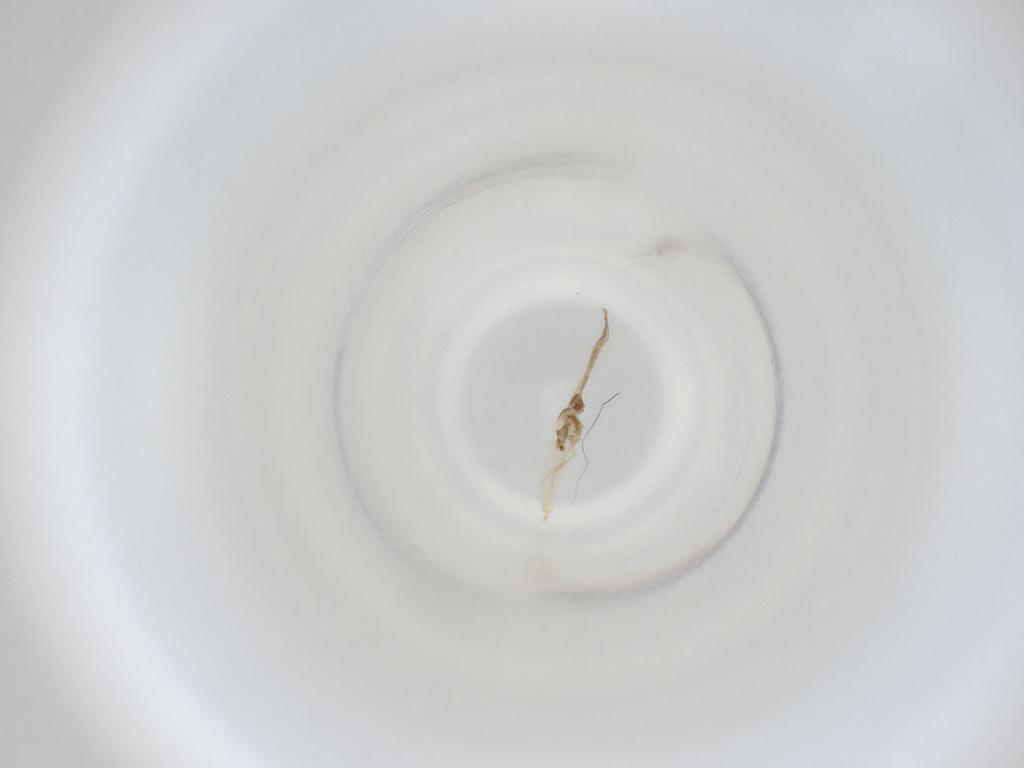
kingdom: Animalia
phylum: Arthropoda
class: Insecta
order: Diptera
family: Cecidomyiidae
